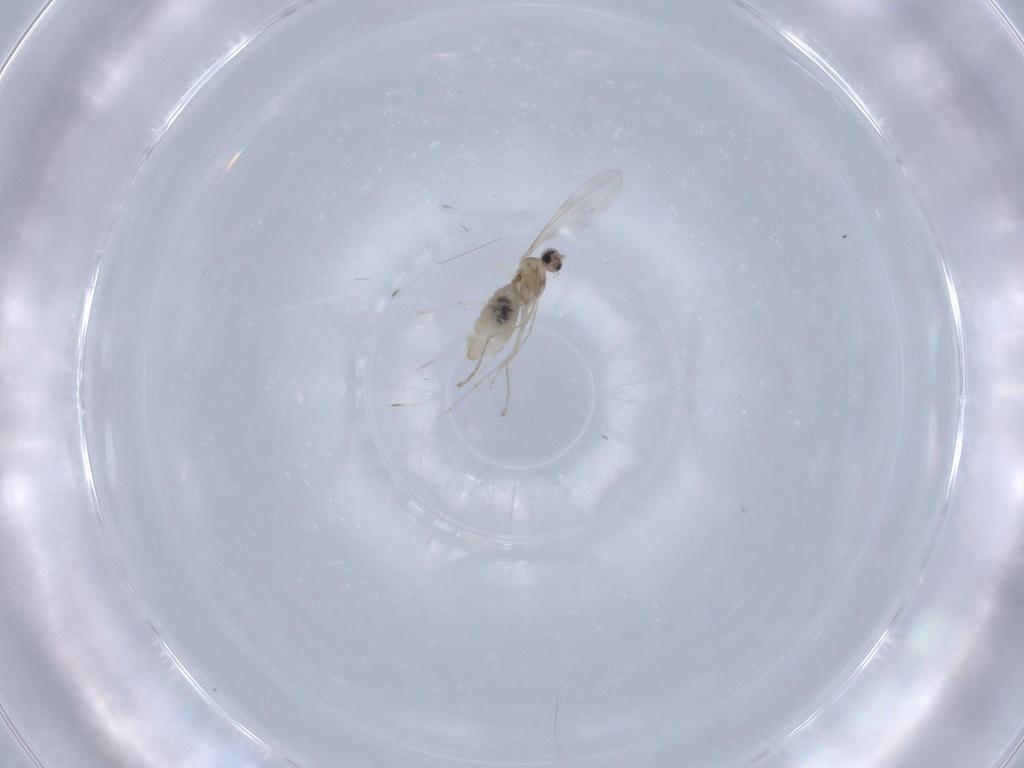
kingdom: Animalia
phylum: Arthropoda
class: Insecta
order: Diptera
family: Cecidomyiidae
